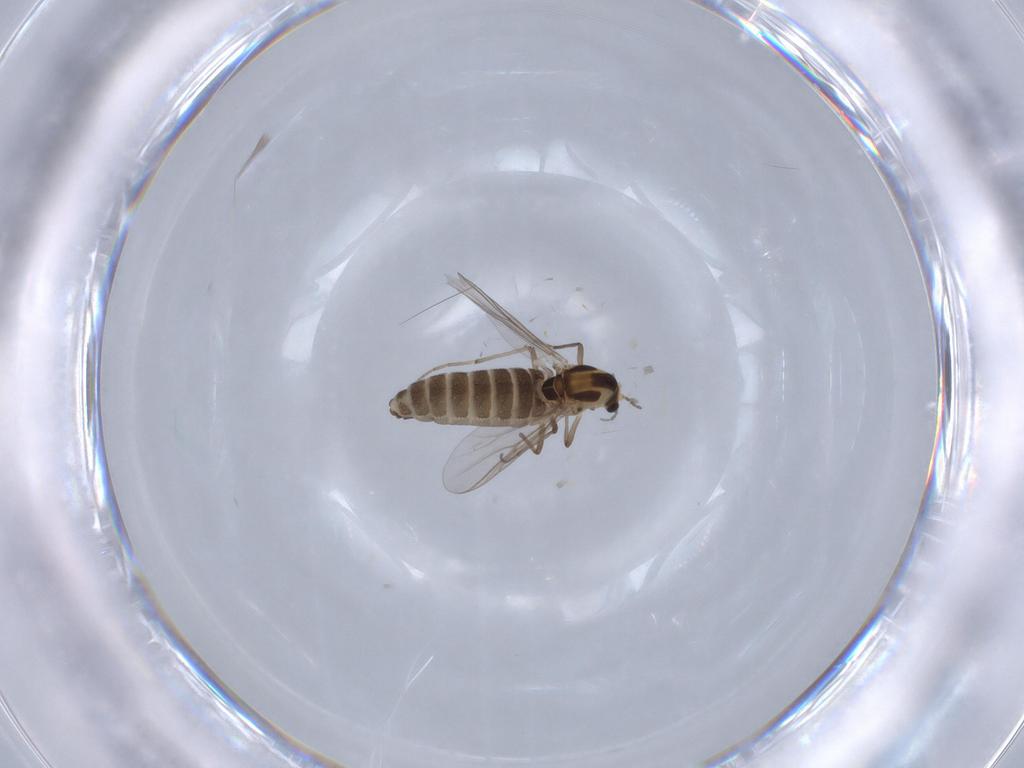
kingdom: Animalia
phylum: Arthropoda
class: Insecta
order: Diptera
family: Chironomidae
